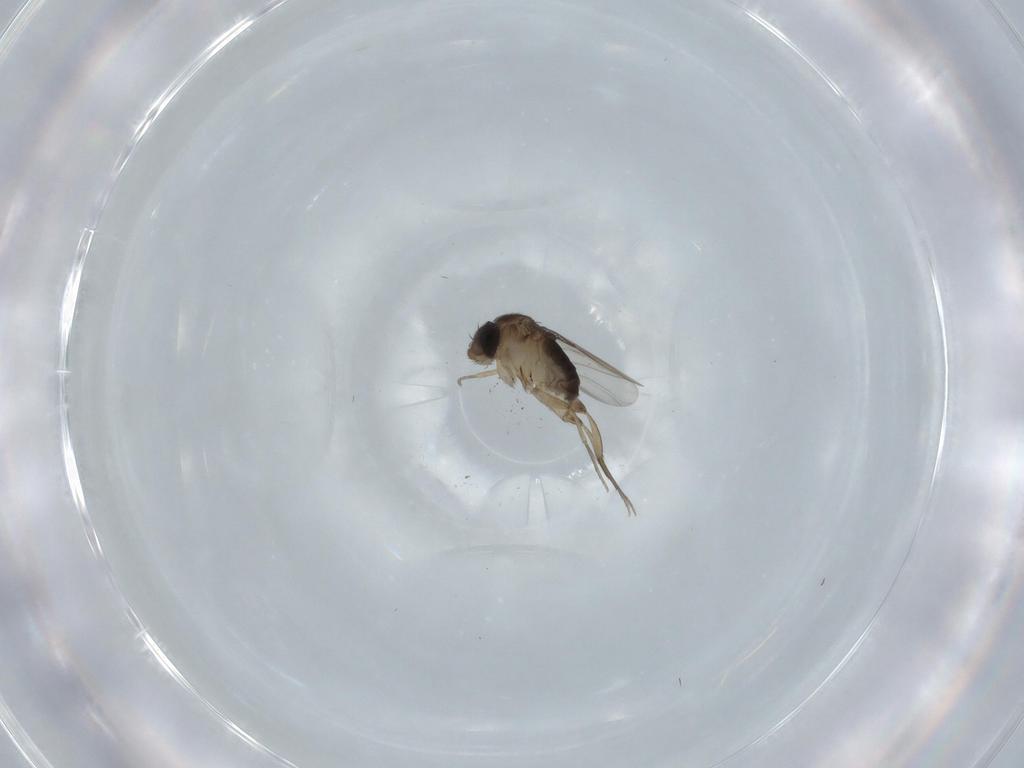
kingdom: Animalia
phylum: Arthropoda
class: Insecta
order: Diptera
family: Phoridae
